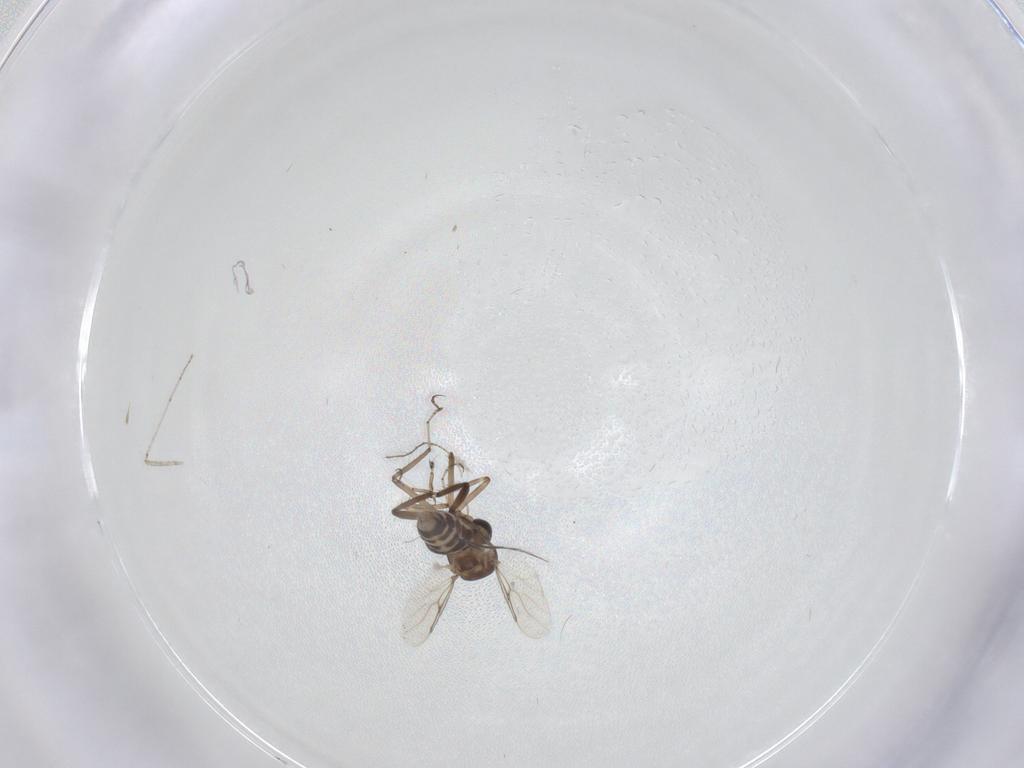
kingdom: Animalia
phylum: Arthropoda
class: Insecta
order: Diptera
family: Ceratopogonidae
